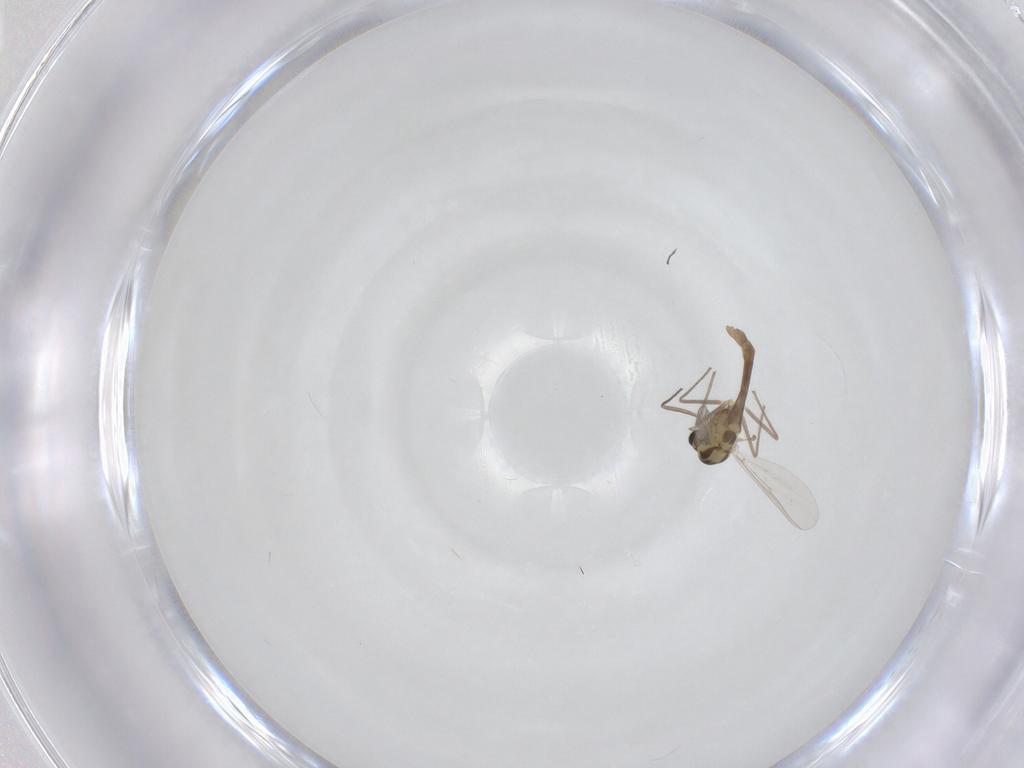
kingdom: Animalia
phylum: Arthropoda
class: Insecta
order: Diptera
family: Chironomidae
